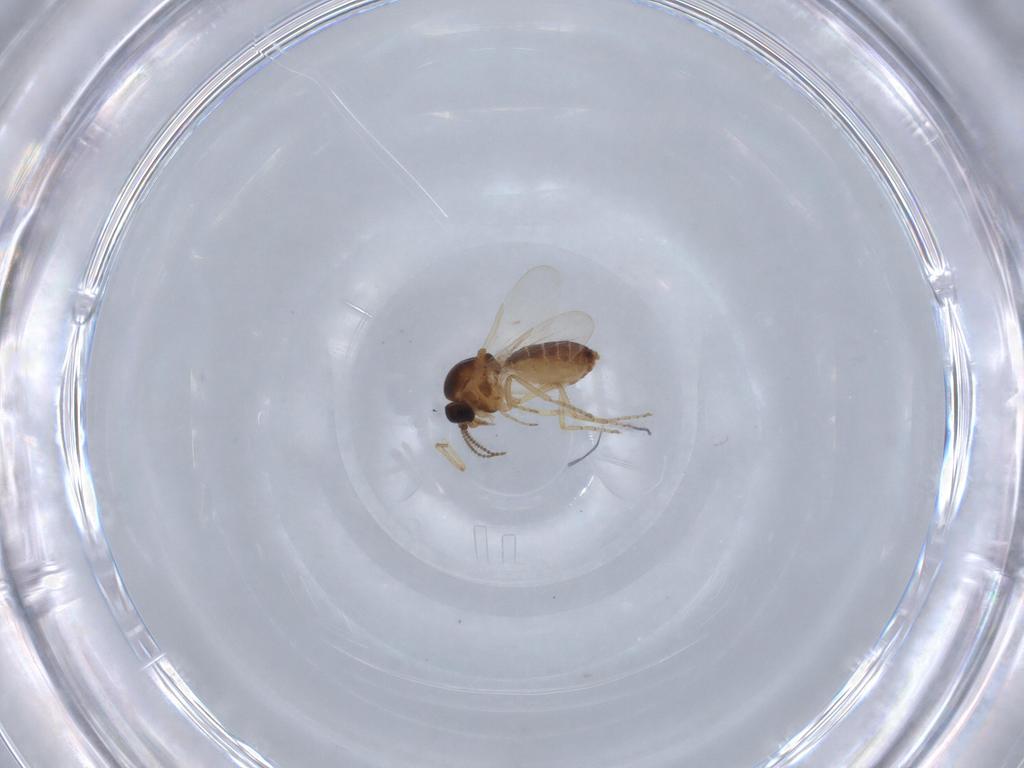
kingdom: Animalia
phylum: Arthropoda
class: Insecta
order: Diptera
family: Ceratopogonidae
